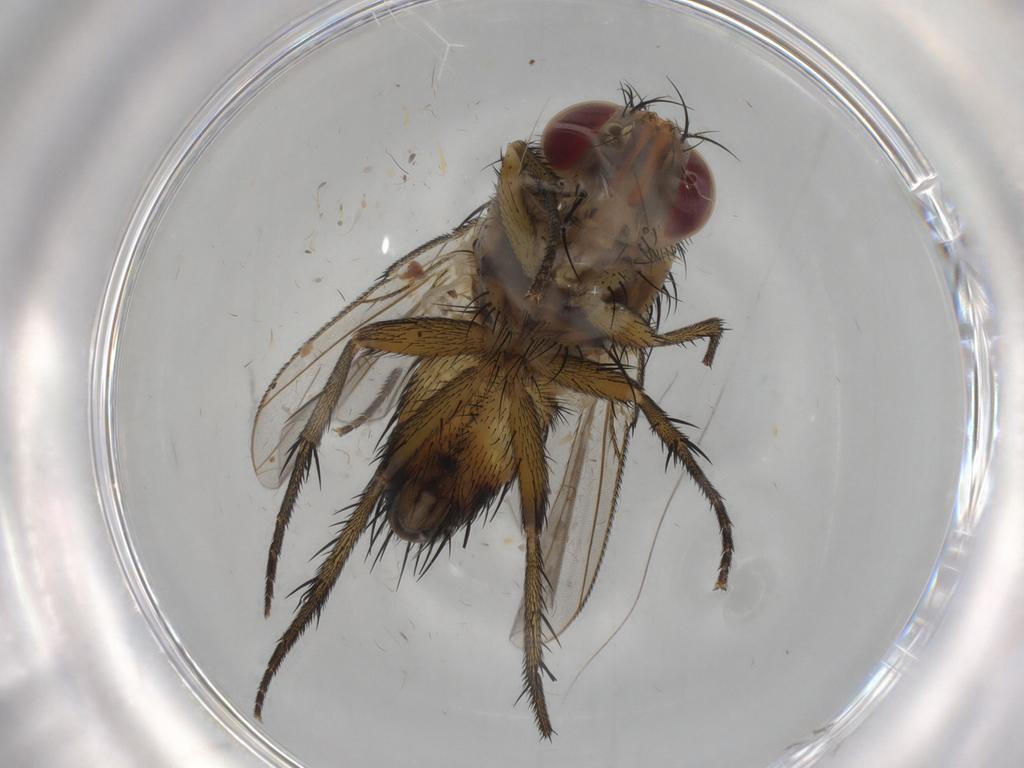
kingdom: Animalia
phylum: Arthropoda
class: Insecta
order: Diptera
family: Tachinidae
